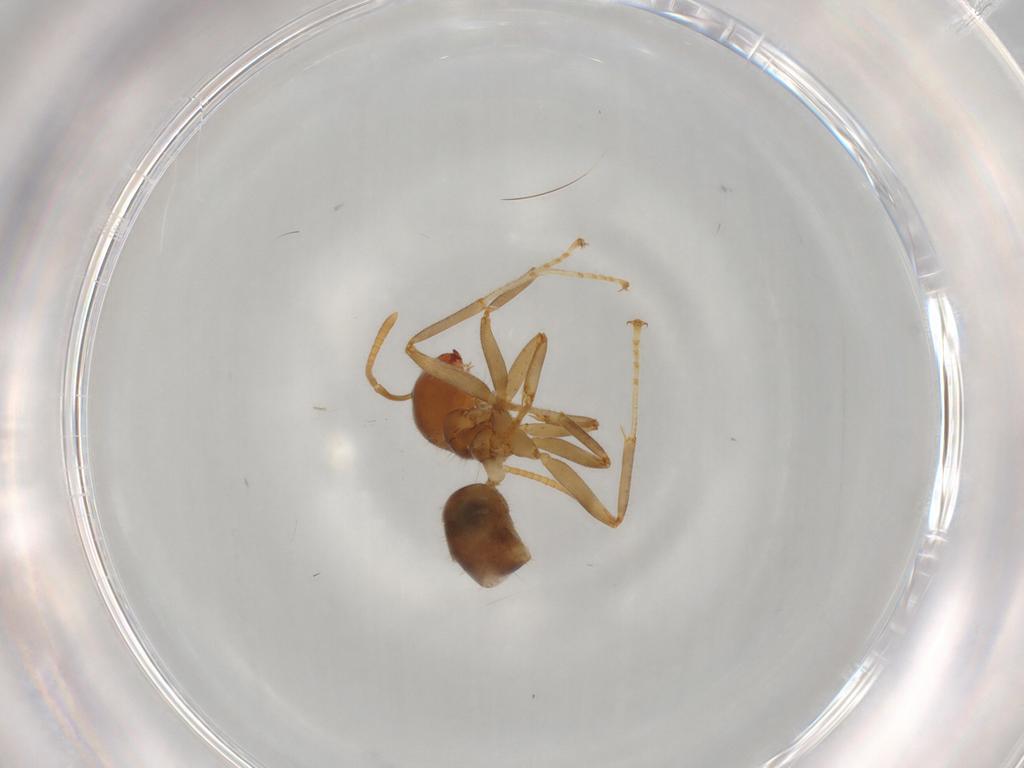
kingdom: Animalia
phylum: Arthropoda
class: Insecta
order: Hymenoptera
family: Formicidae
